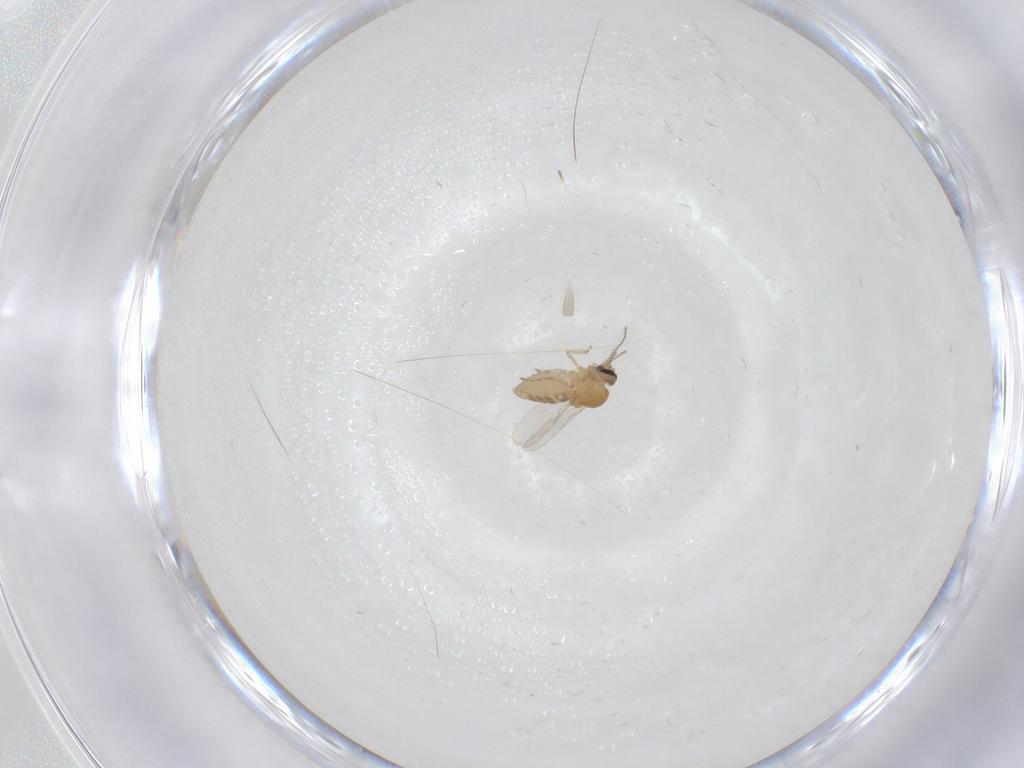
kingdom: Animalia
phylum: Arthropoda
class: Insecta
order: Diptera
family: Ceratopogonidae
